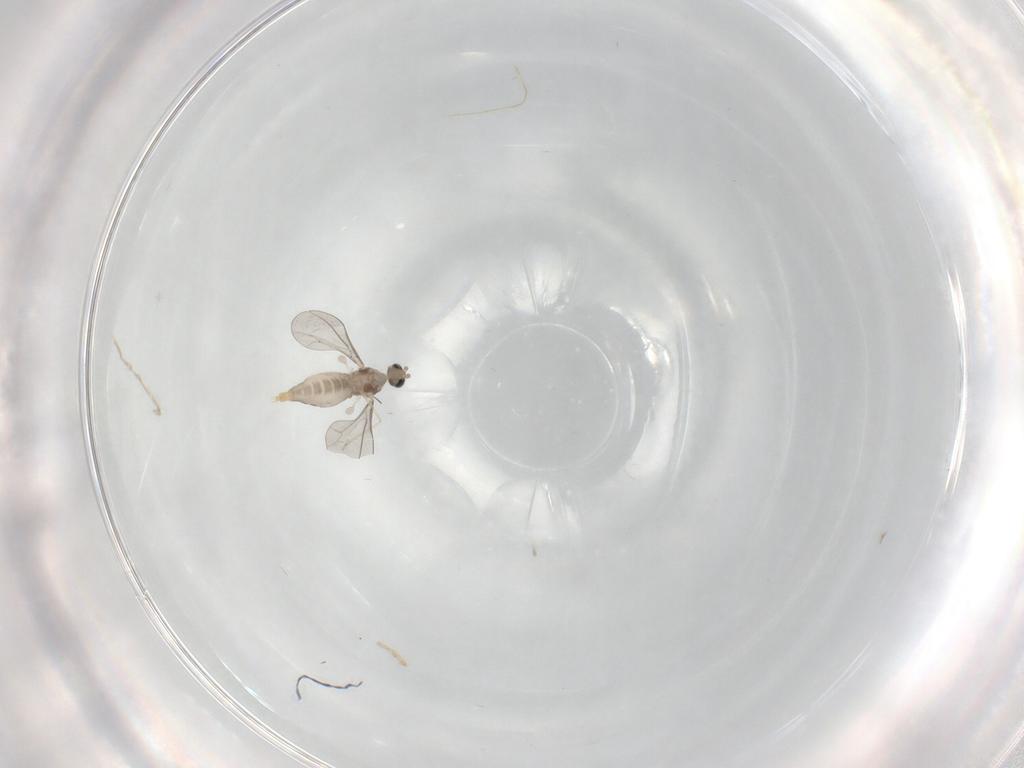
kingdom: Animalia
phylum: Arthropoda
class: Insecta
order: Diptera
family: Cecidomyiidae
